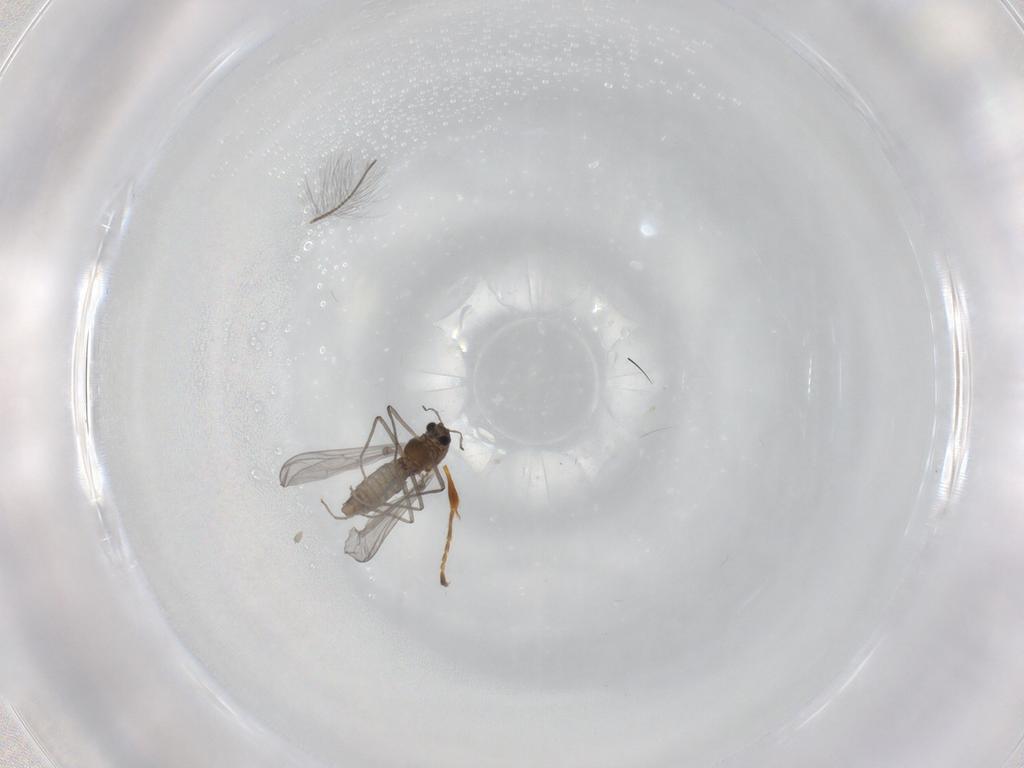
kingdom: Animalia
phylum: Arthropoda
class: Insecta
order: Diptera
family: Chironomidae
